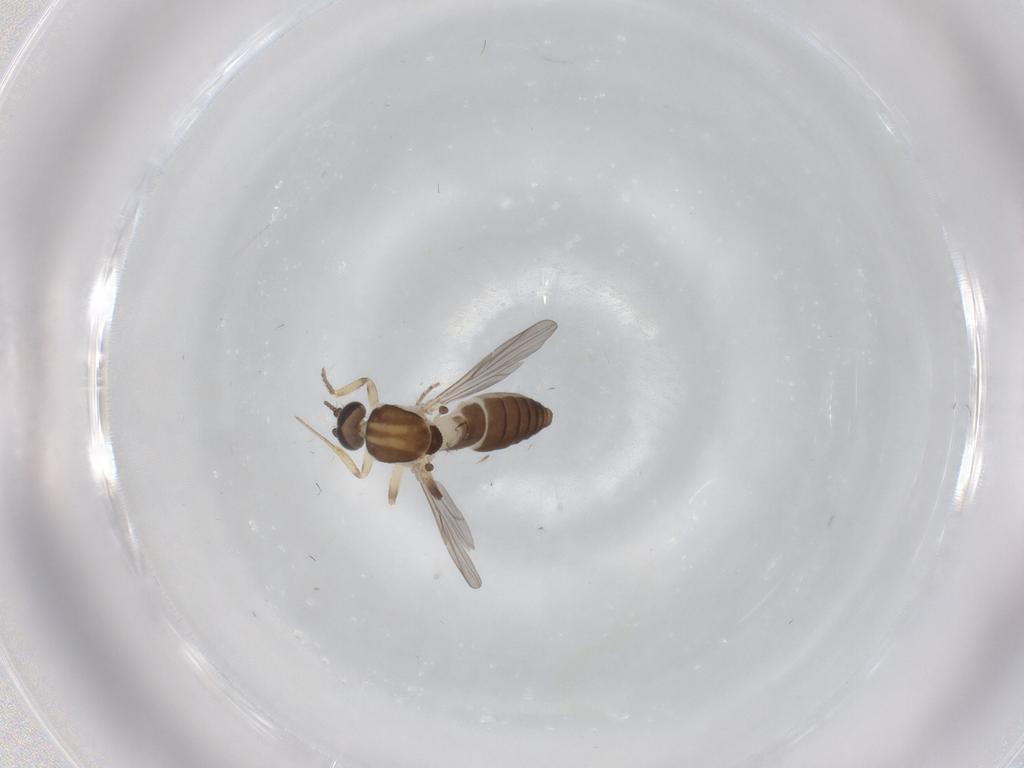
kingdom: Animalia
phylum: Arthropoda
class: Insecta
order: Diptera
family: Ceratopogonidae
